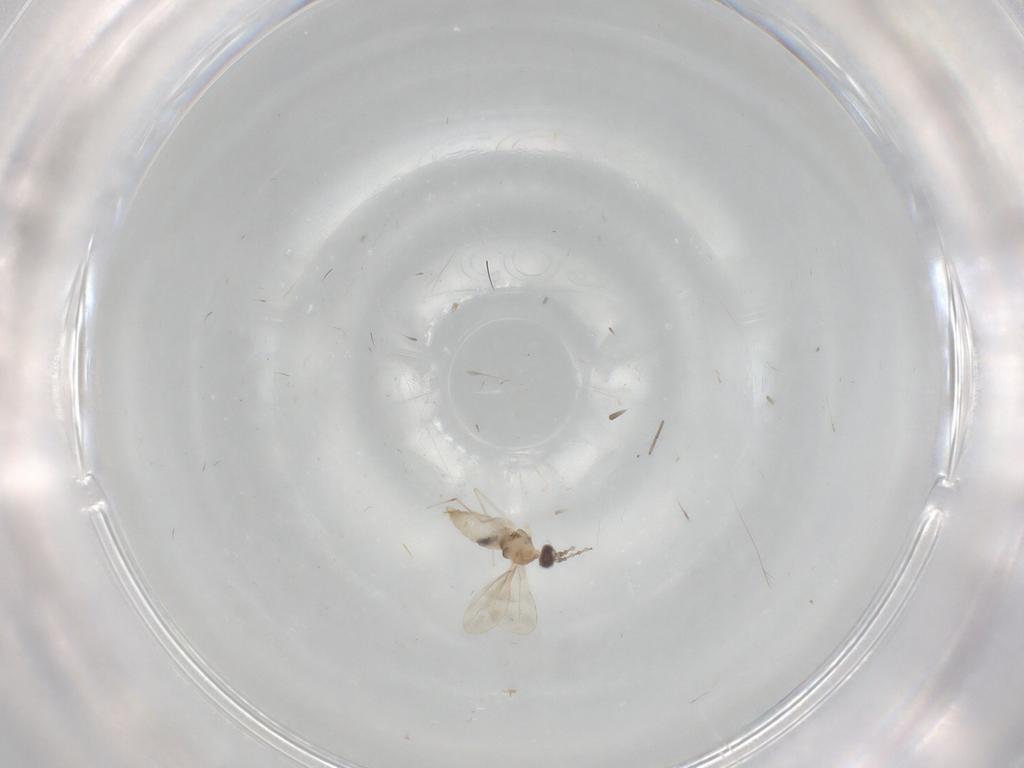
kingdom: Animalia
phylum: Arthropoda
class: Insecta
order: Diptera
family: Cecidomyiidae
